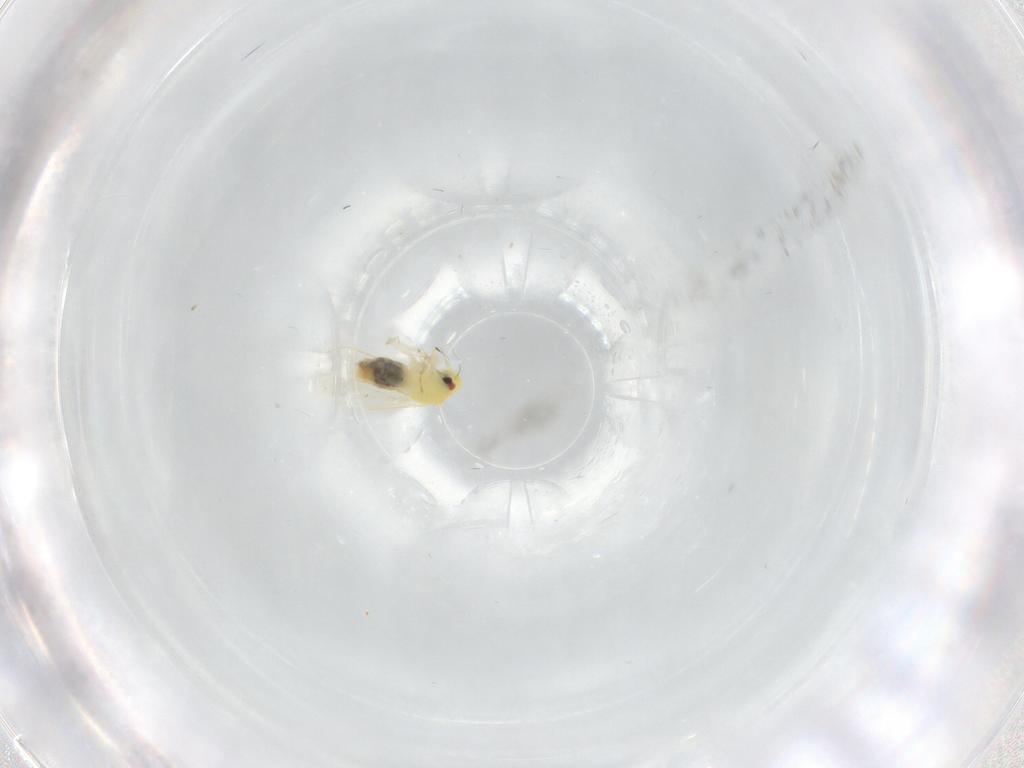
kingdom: Animalia
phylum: Arthropoda
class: Insecta
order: Hemiptera
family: Aleyrodidae
